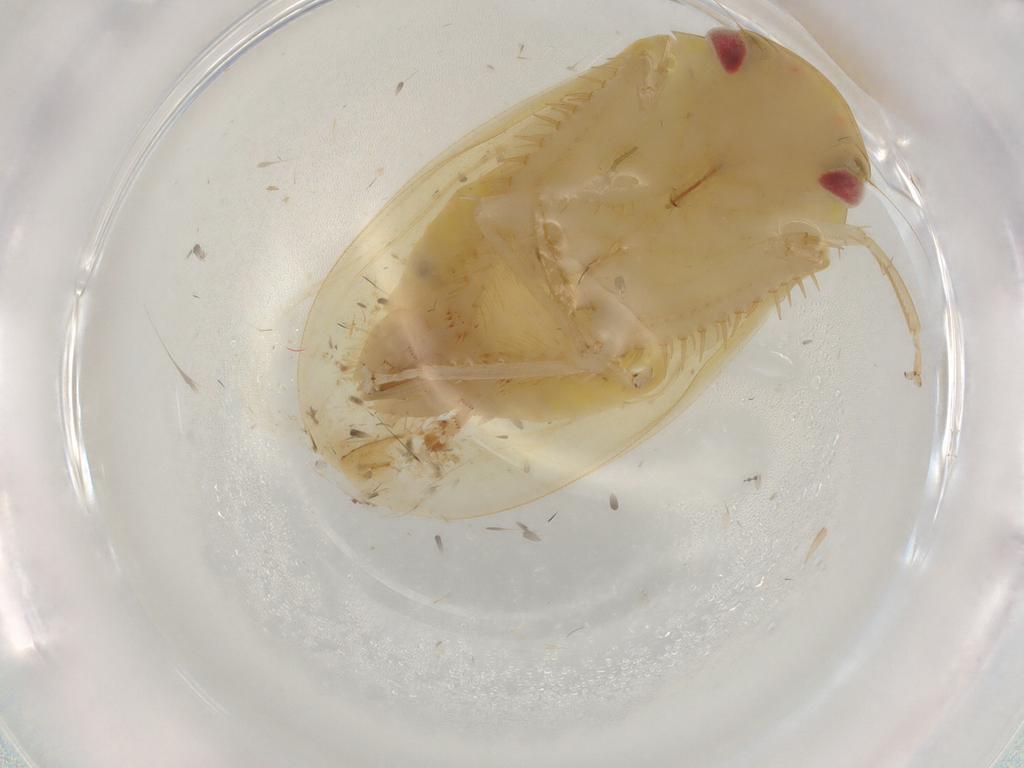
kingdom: Animalia
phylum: Arthropoda
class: Insecta
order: Hemiptera
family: Cicadellidae
